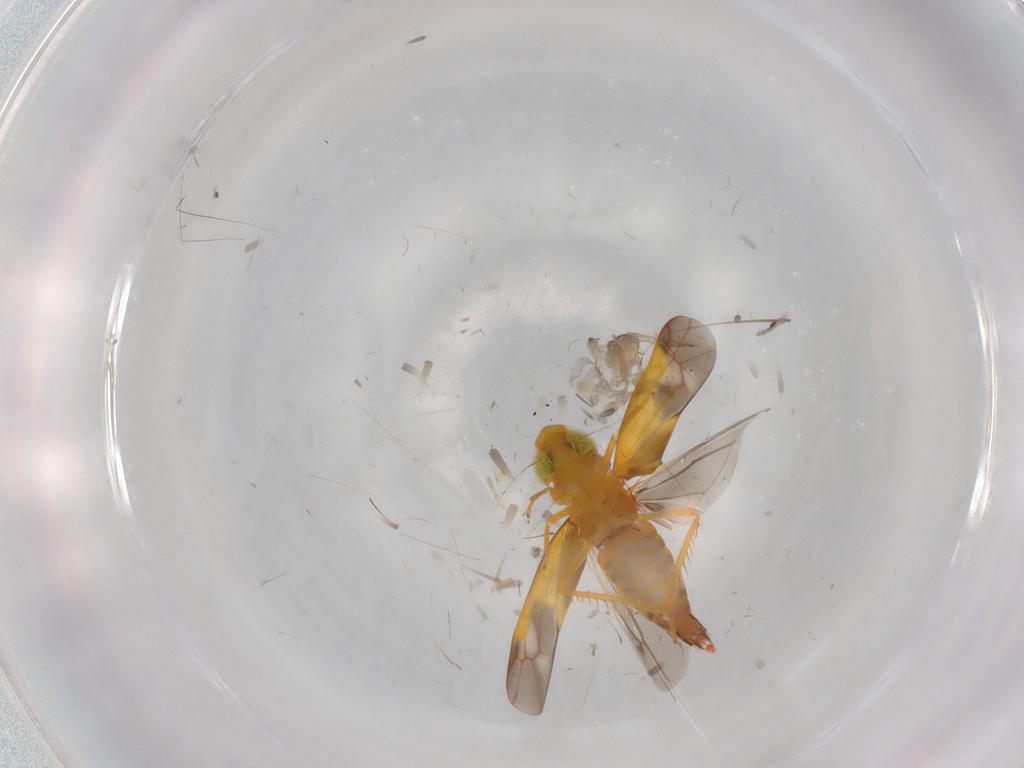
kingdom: Animalia
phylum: Arthropoda
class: Insecta
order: Hemiptera
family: Cicadellidae
